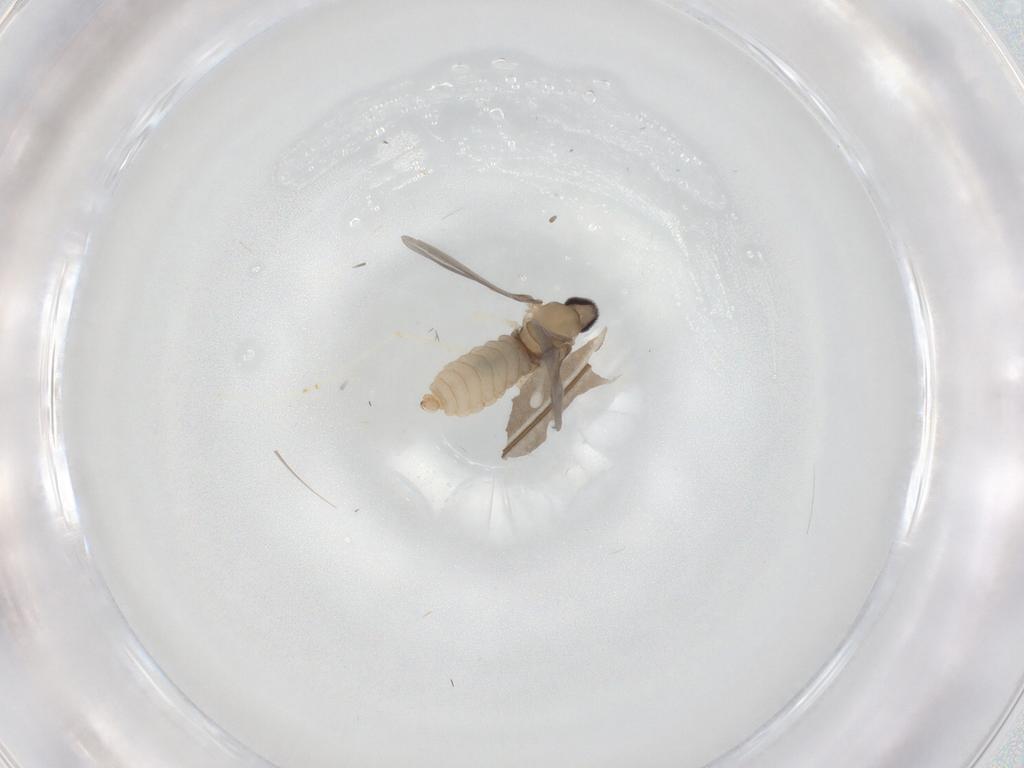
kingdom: Animalia
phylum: Arthropoda
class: Insecta
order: Diptera
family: Cecidomyiidae
